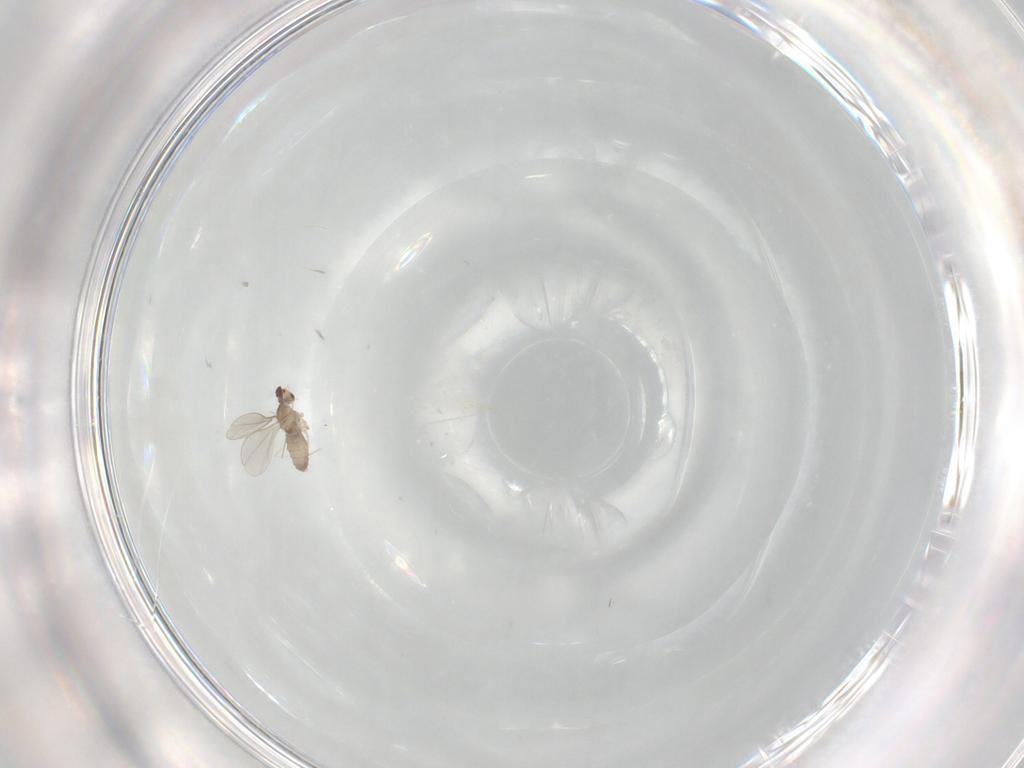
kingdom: Animalia
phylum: Arthropoda
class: Insecta
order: Diptera
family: Cecidomyiidae
